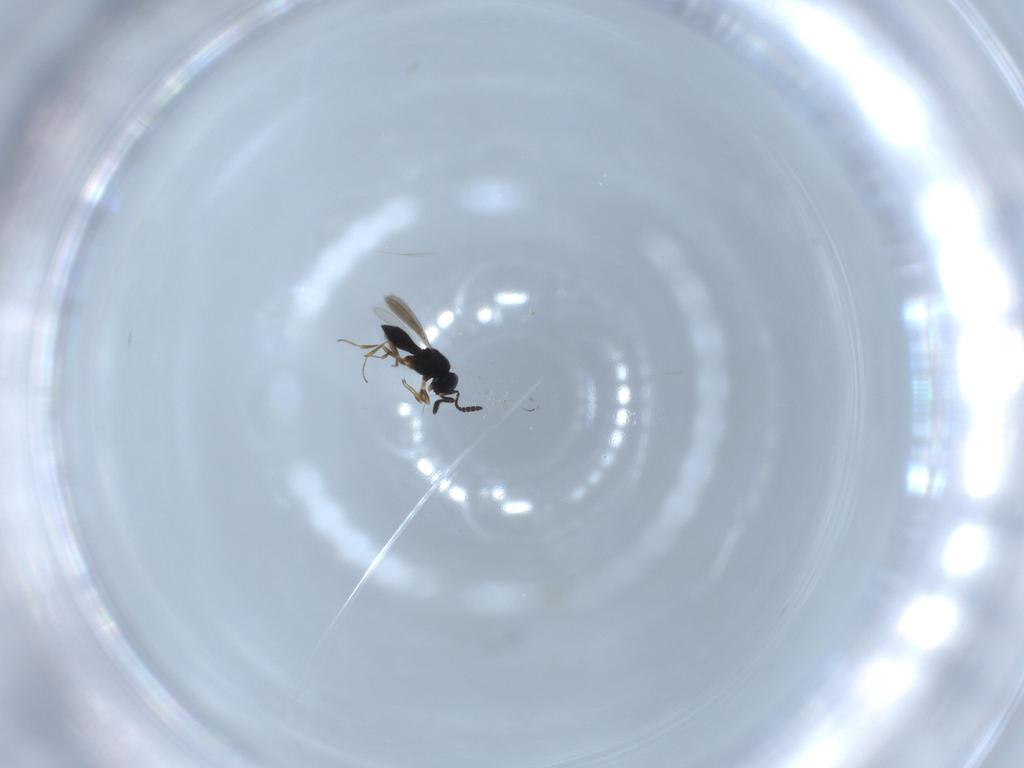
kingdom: Animalia
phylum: Arthropoda
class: Insecta
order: Hymenoptera
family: Scelionidae
